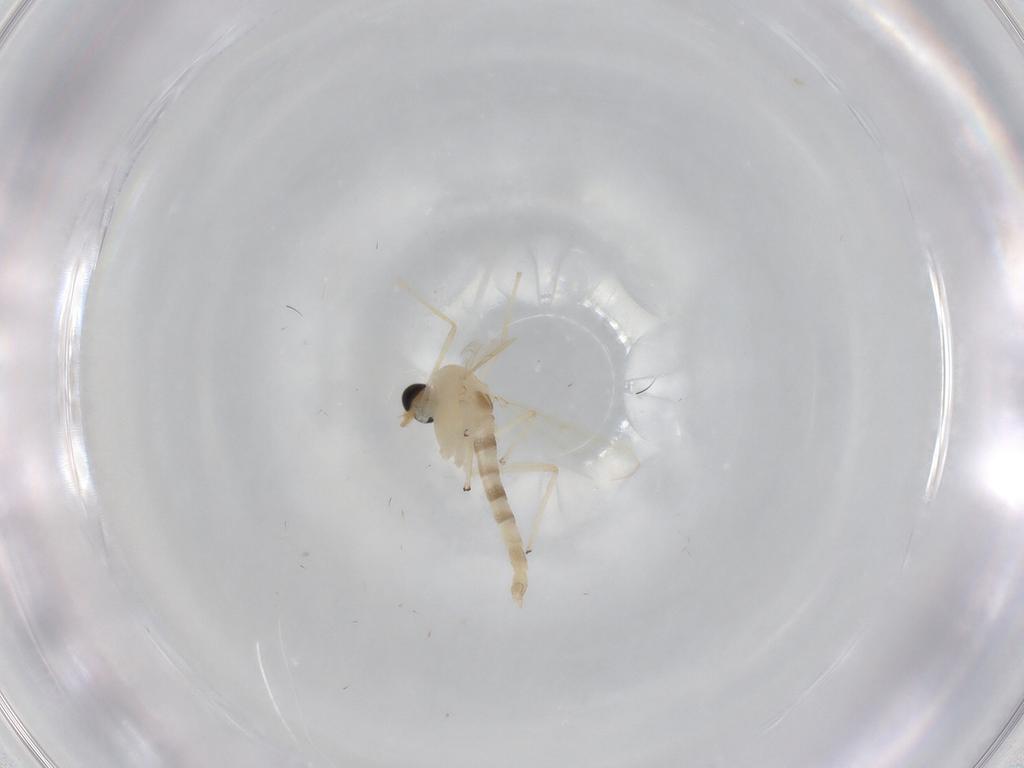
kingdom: Animalia
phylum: Arthropoda
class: Insecta
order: Diptera
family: Chironomidae
